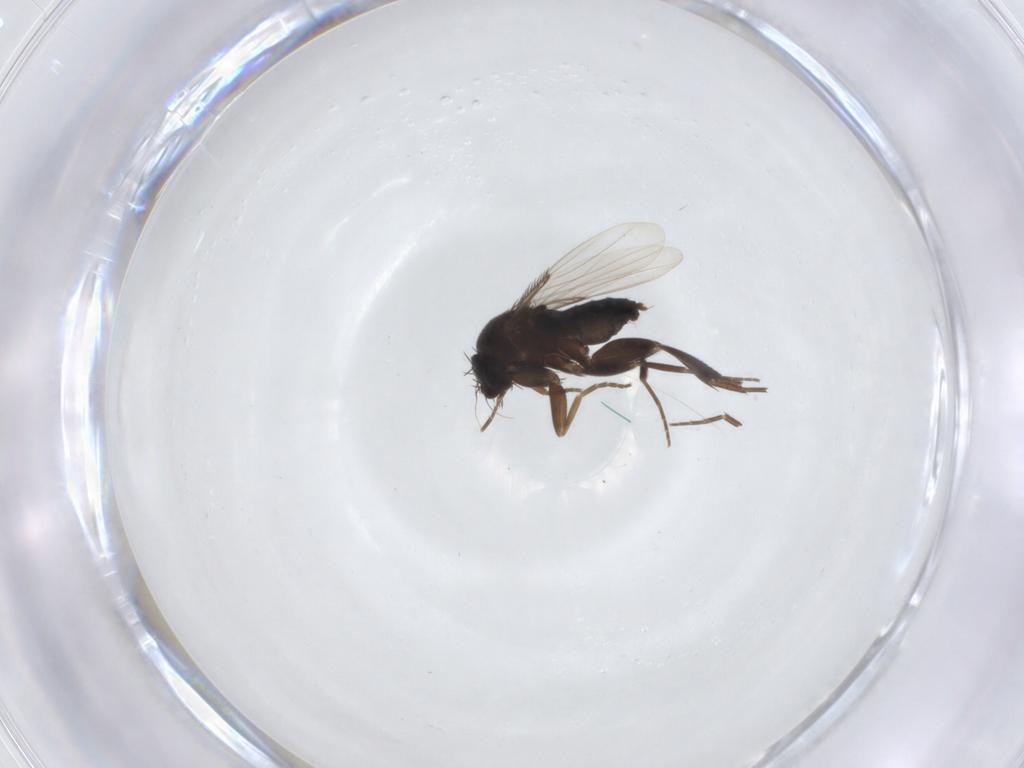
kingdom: Animalia
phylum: Arthropoda
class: Insecta
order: Diptera
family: Phoridae
